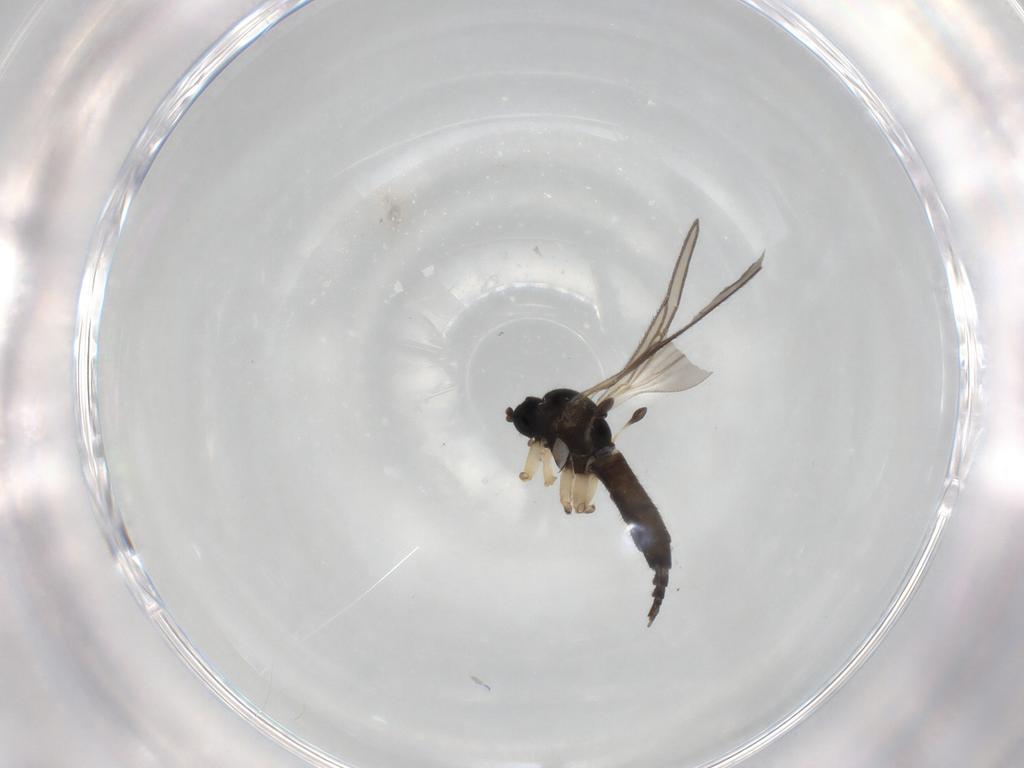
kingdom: Animalia
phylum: Arthropoda
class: Insecta
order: Diptera
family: Sciaridae
